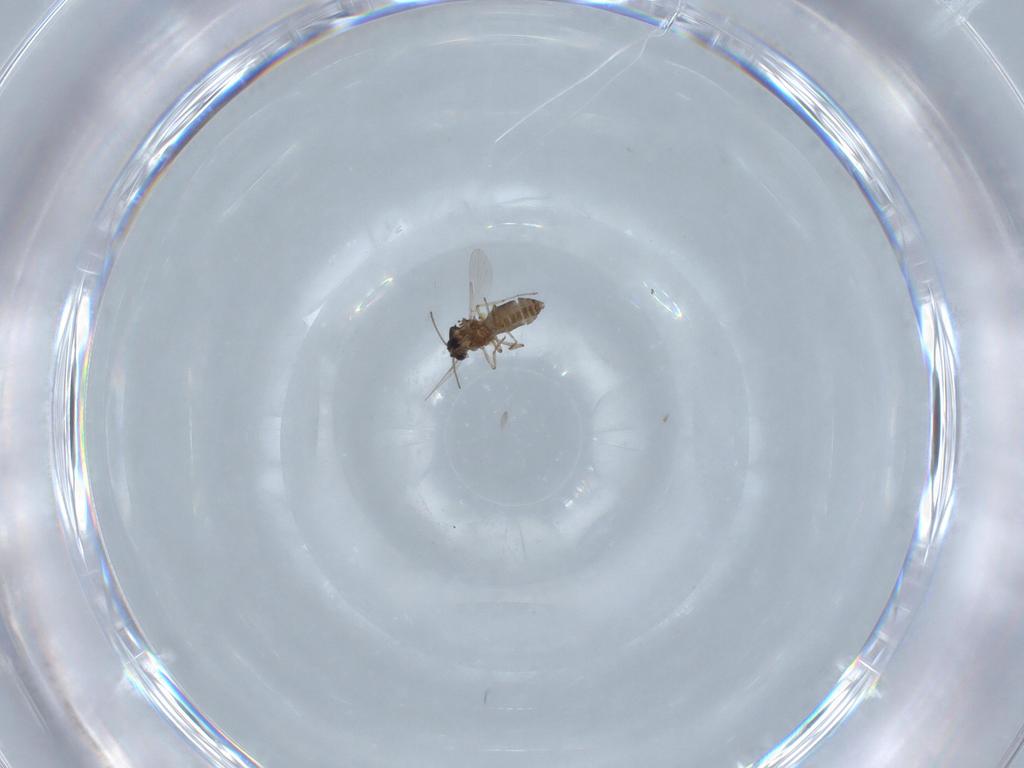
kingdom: Animalia
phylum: Arthropoda
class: Insecta
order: Diptera
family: Ceratopogonidae
